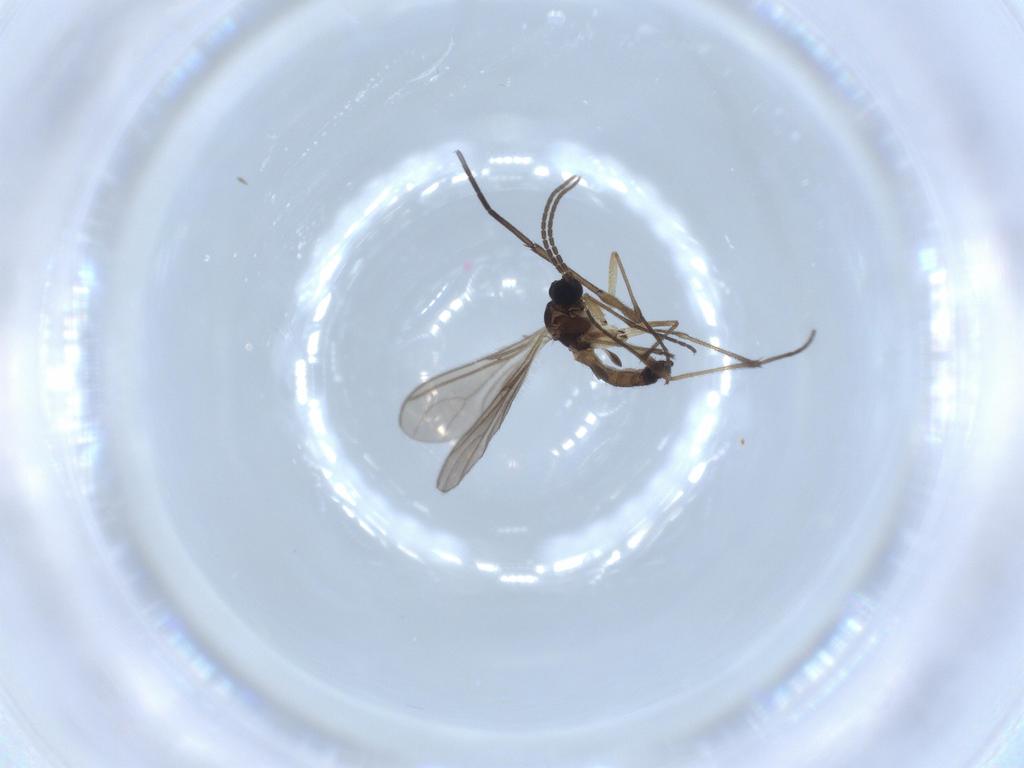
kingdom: Animalia
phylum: Arthropoda
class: Insecta
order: Diptera
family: Sciaridae
